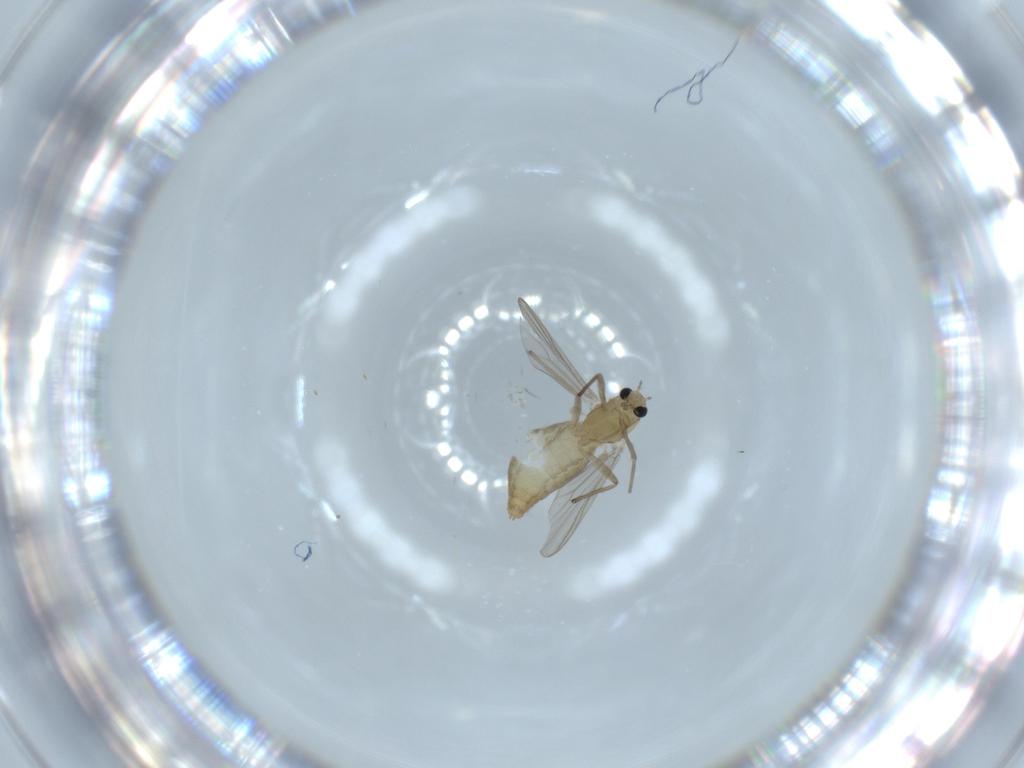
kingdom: Animalia
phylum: Arthropoda
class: Insecta
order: Diptera
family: Chironomidae
